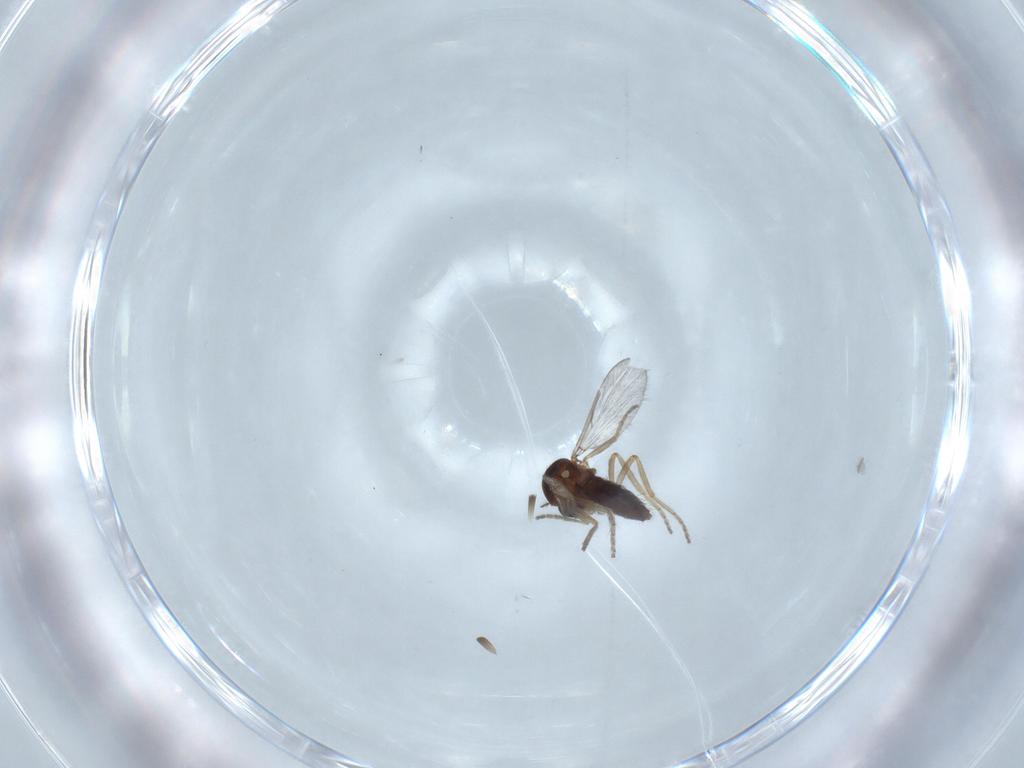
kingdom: Animalia
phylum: Arthropoda
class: Insecta
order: Diptera
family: Ceratopogonidae
